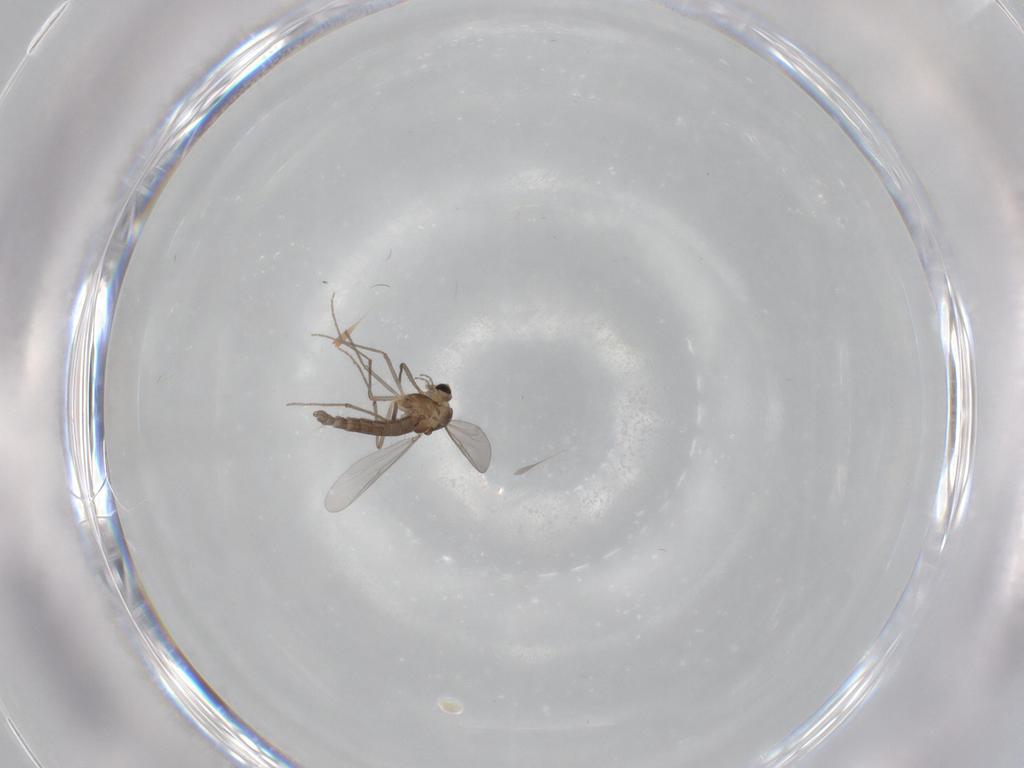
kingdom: Animalia
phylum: Arthropoda
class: Insecta
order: Diptera
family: Chironomidae
